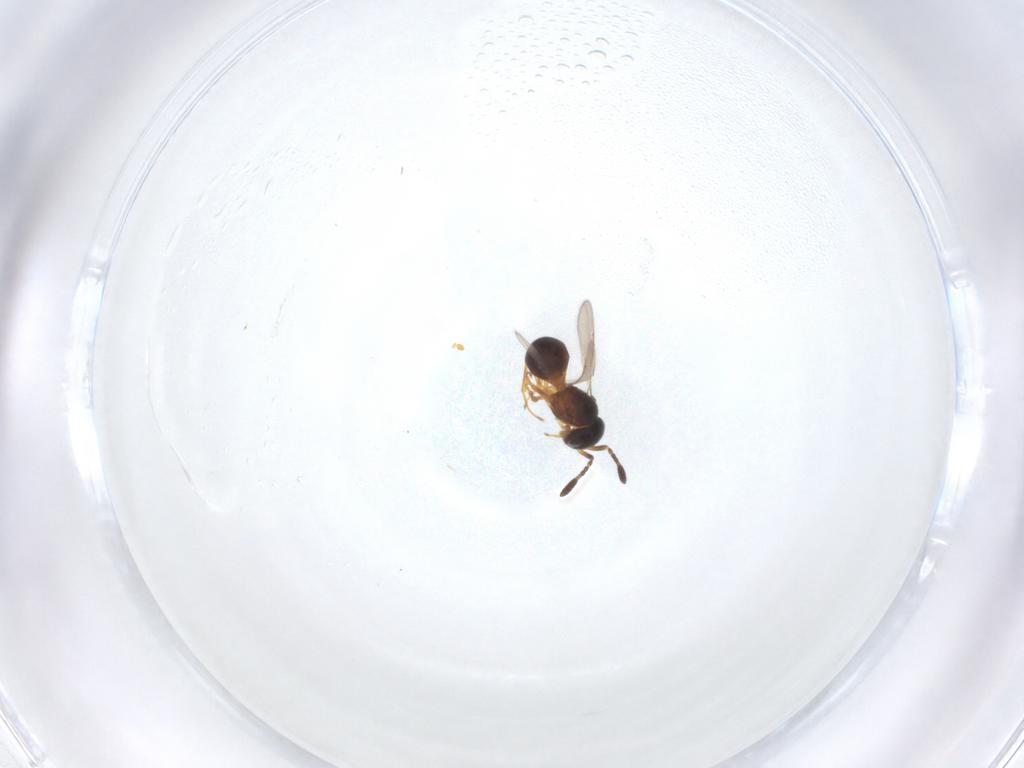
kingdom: Animalia
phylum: Arthropoda
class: Insecta
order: Hymenoptera
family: Scelionidae
